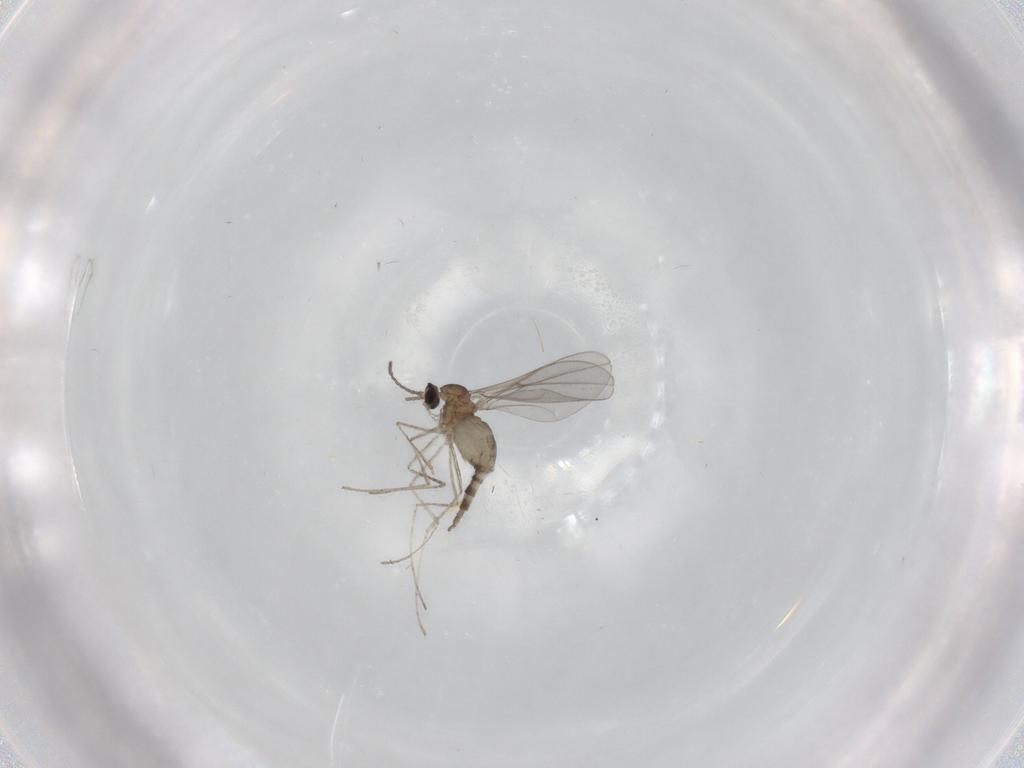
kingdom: Animalia
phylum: Arthropoda
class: Insecta
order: Diptera
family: Cecidomyiidae
